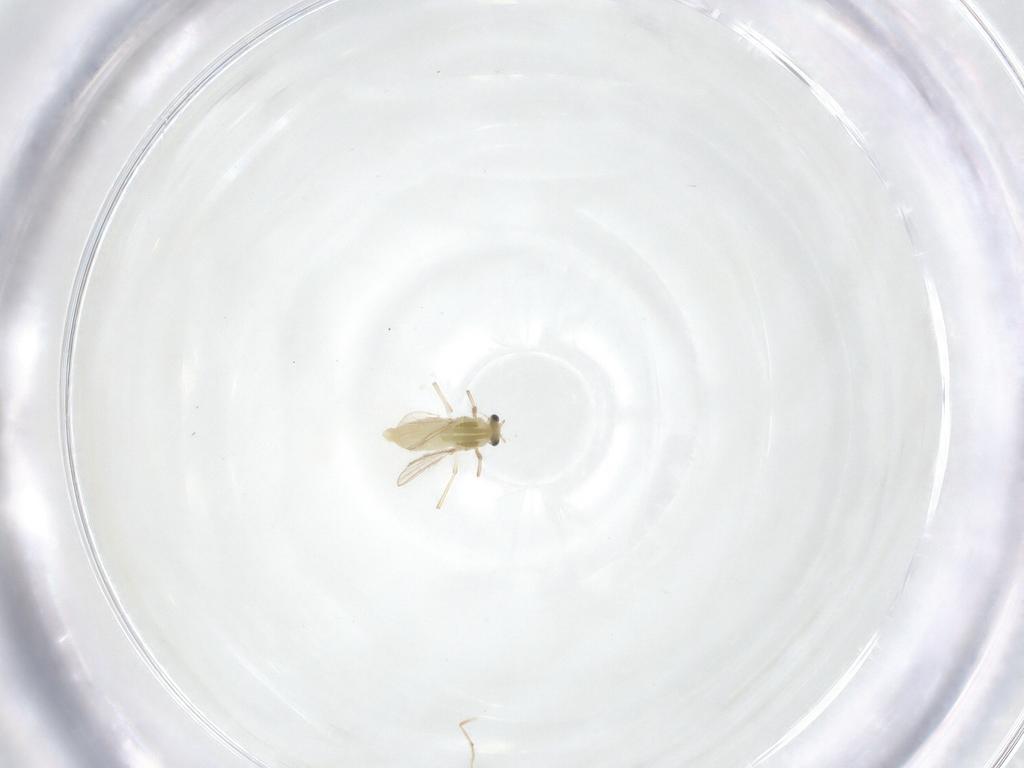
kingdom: Animalia
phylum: Arthropoda
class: Insecta
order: Diptera
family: Chironomidae
